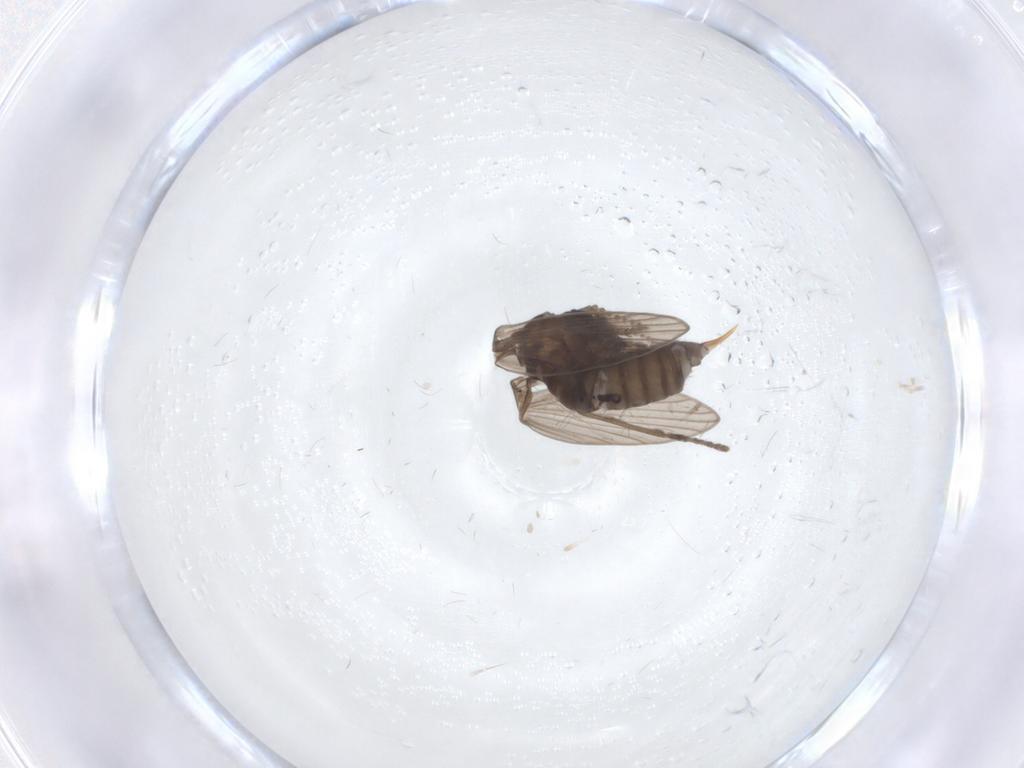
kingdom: Animalia
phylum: Arthropoda
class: Insecta
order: Diptera
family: Psychodidae
